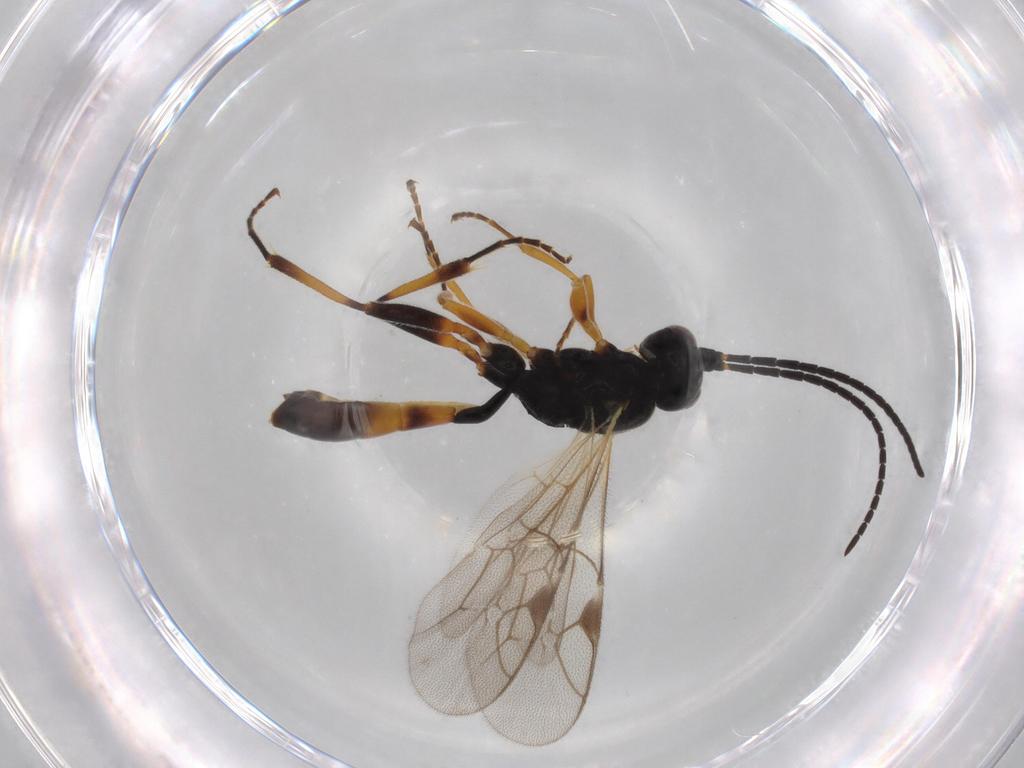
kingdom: Animalia
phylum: Arthropoda
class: Insecta
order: Hymenoptera
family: Ichneumonidae
